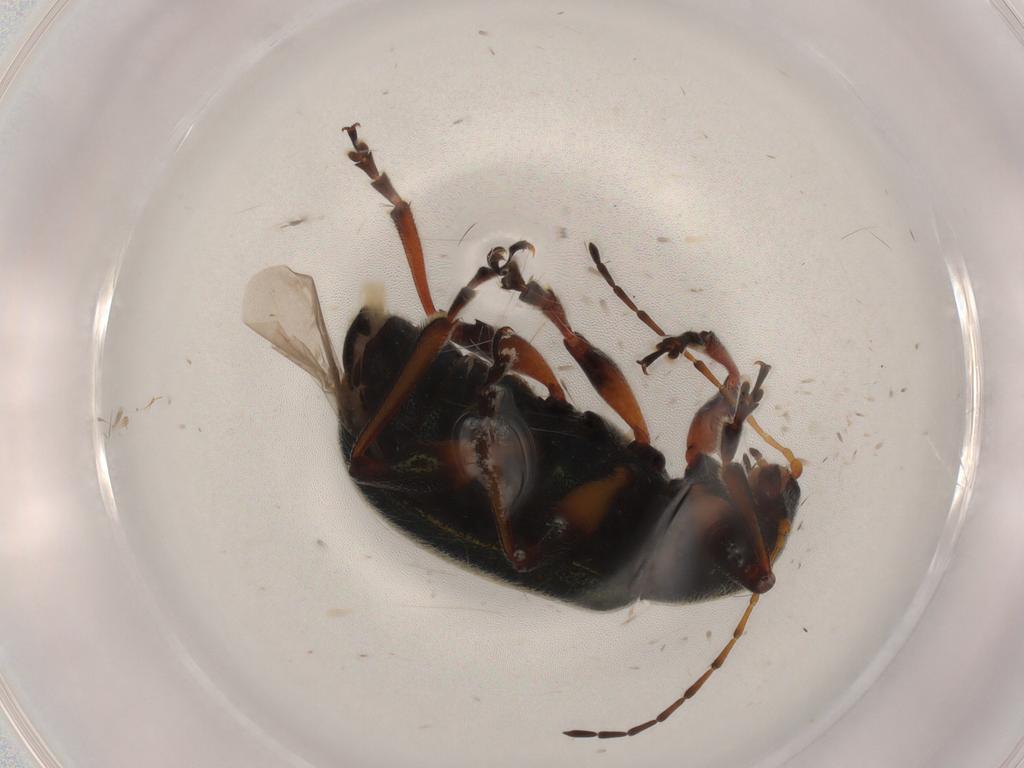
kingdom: Animalia
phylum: Arthropoda
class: Insecta
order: Coleoptera
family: Chrysomelidae
